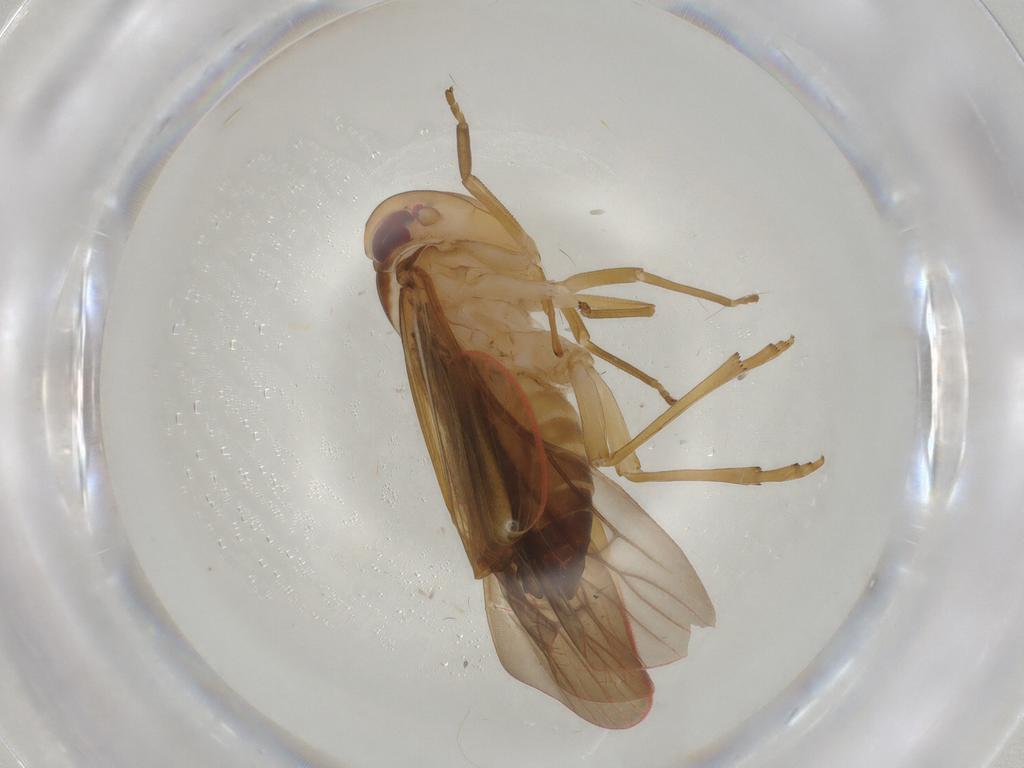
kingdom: Animalia
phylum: Arthropoda
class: Insecta
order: Hemiptera
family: Achilidae
